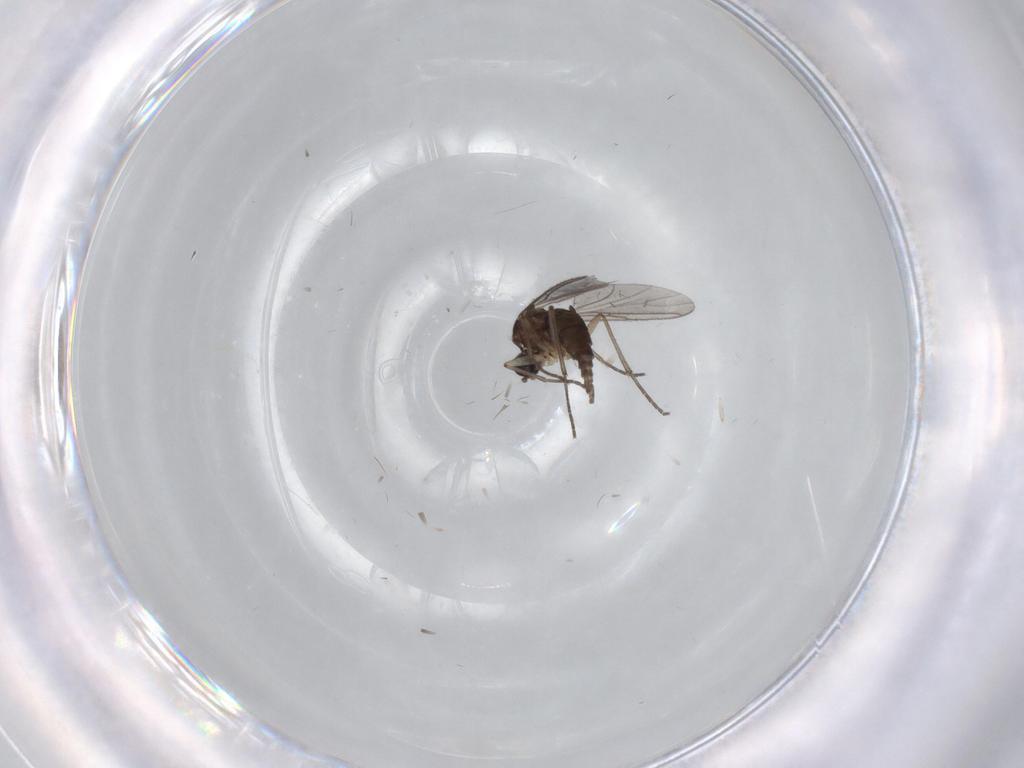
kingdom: Animalia
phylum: Arthropoda
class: Insecta
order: Diptera
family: Sciaridae
